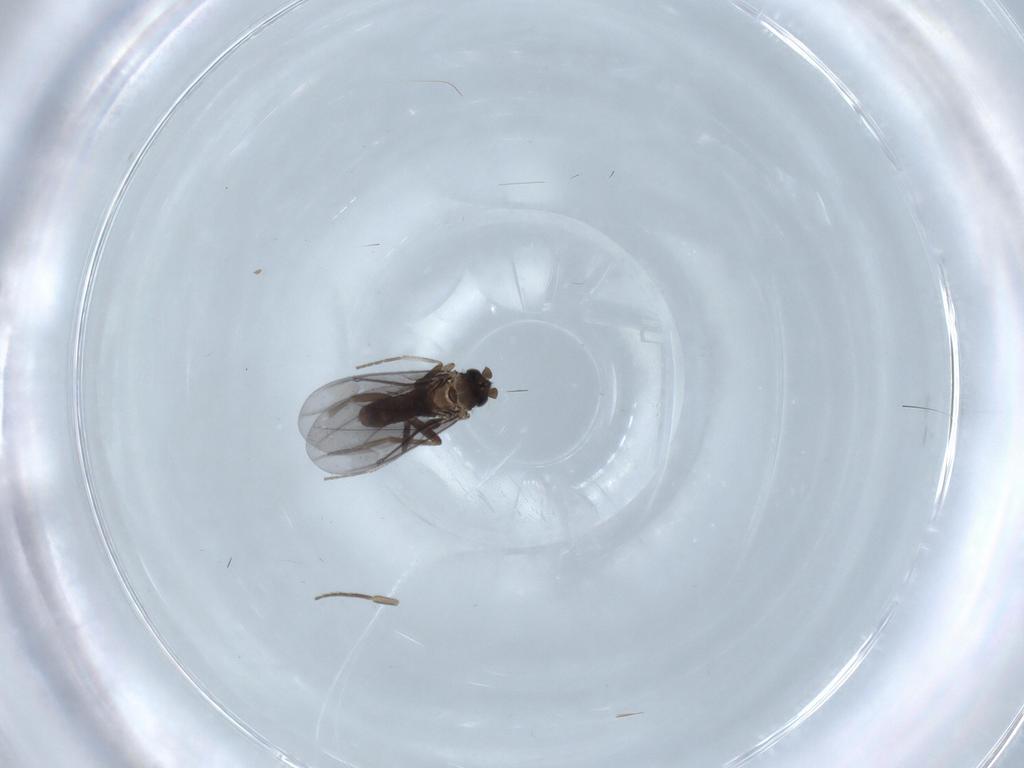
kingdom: Animalia
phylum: Arthropoda
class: Insecta
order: Diptera
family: Phoridae
